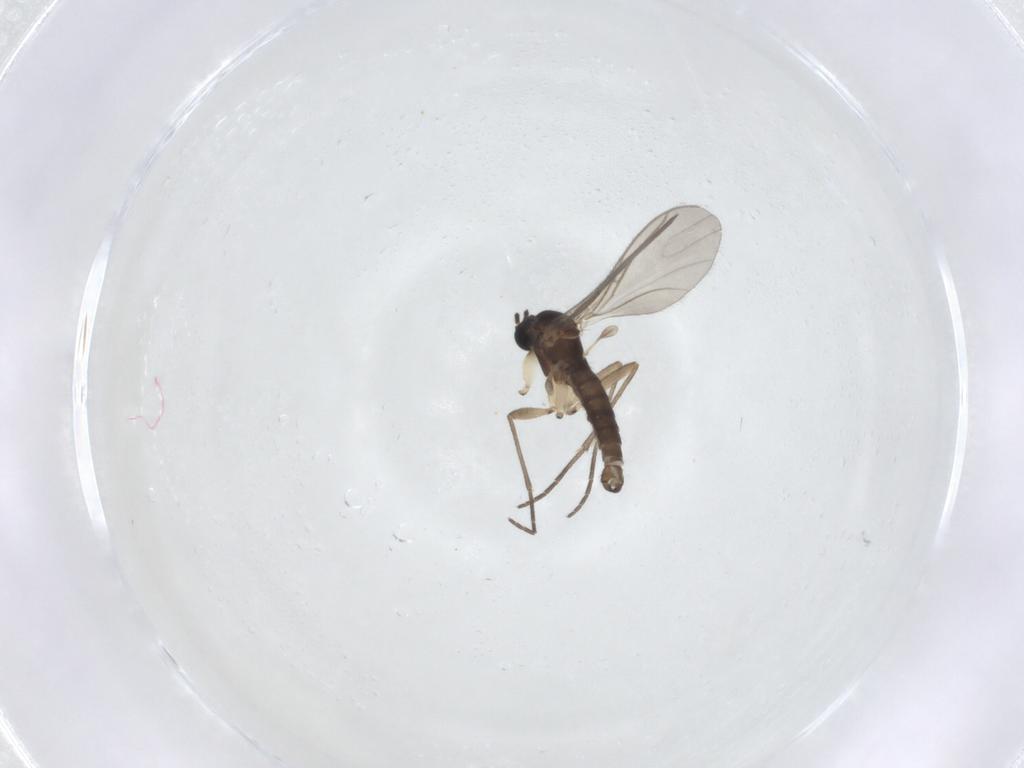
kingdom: Animalia
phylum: Arthropoda
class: Insecta
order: Diptera
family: Sciaridae
